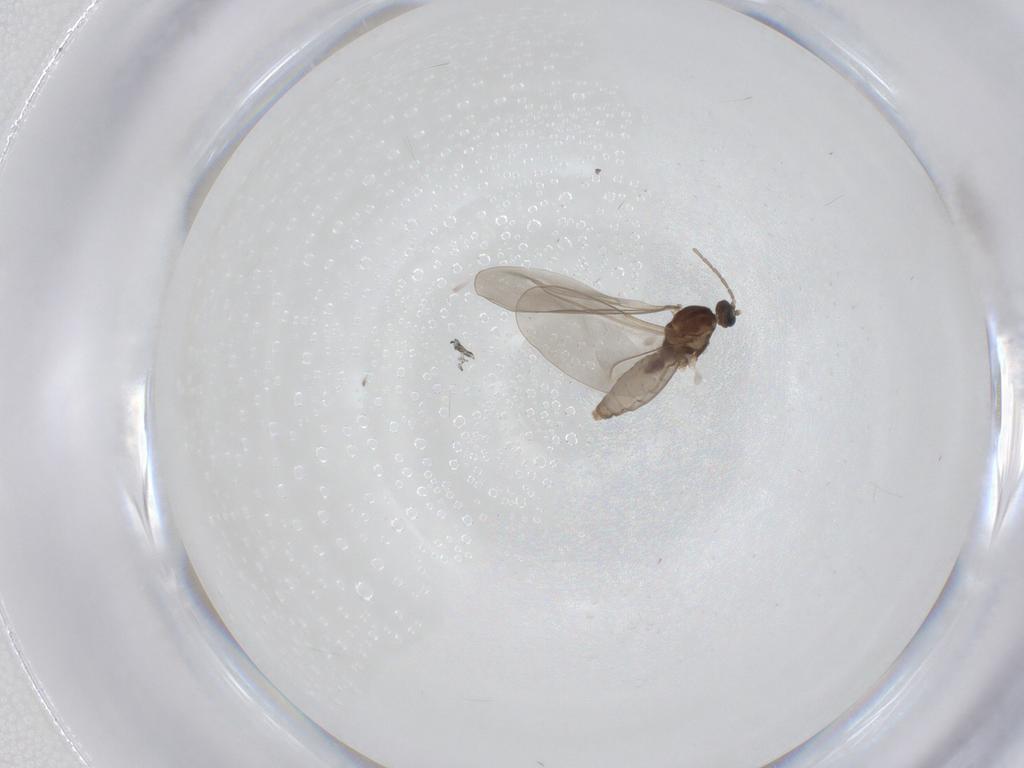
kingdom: Animalia
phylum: Arthropoda
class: Insecta
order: Diptera
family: Cecidomyiidae
